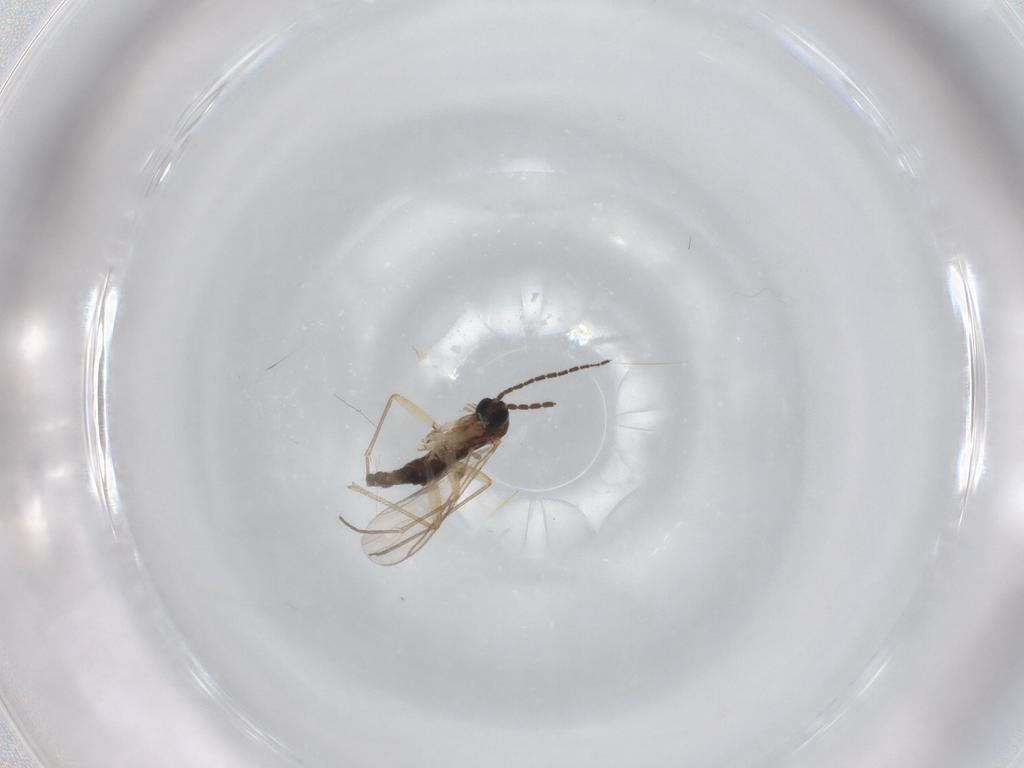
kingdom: Animalia
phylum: Arthropoda
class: Insecta
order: Diptera
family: Sciaridae
